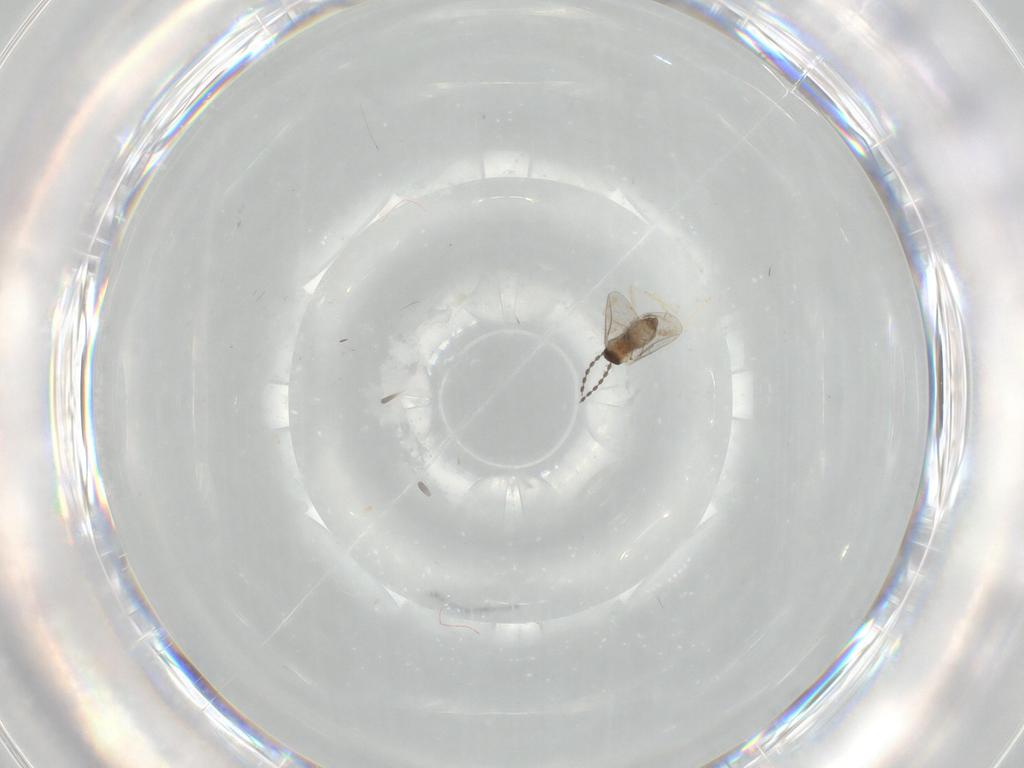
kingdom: Animalia
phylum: Arthropoda
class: Insecta
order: Diptera
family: Cecidomyiidae
